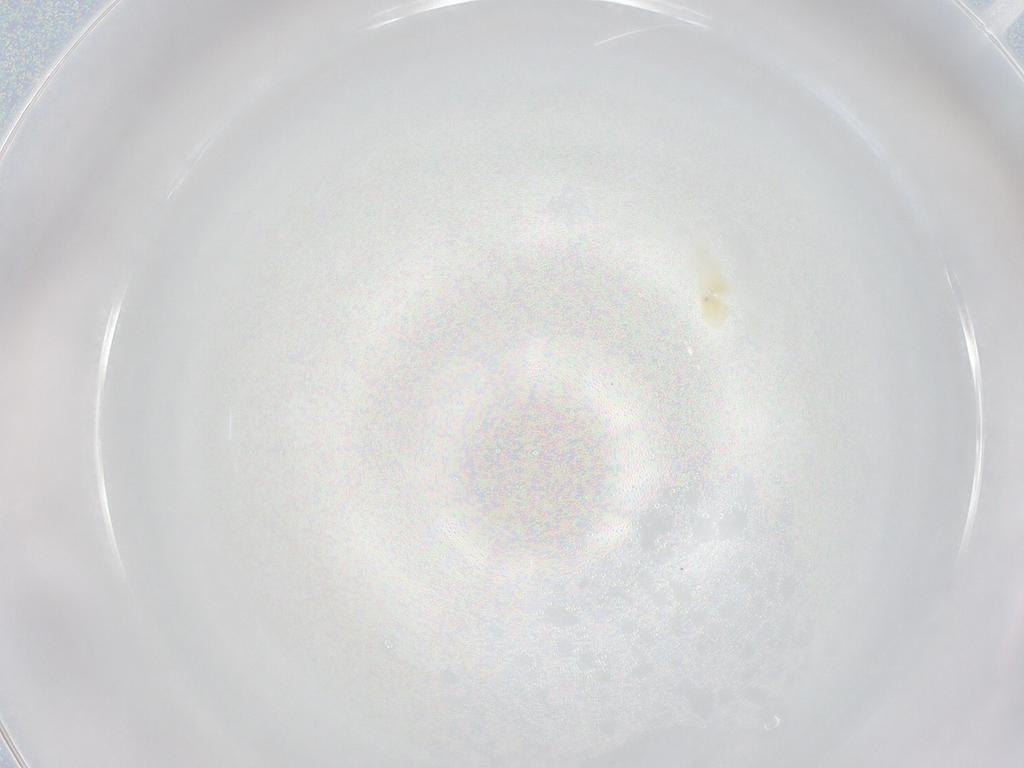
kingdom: Animalia
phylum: Arthropoda
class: Arachnida
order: Trombidiformes
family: Rhagidiidae
